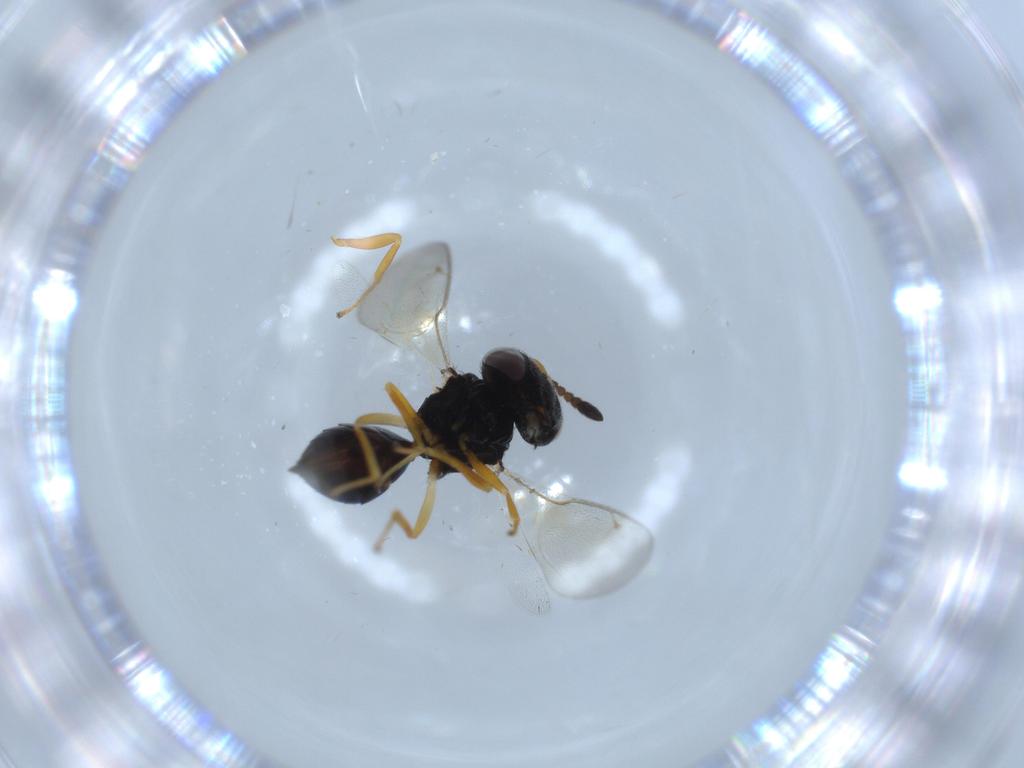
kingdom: Animalia
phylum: Arthropoda
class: Insecta
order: Hymenoptera
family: Pteromalidae
